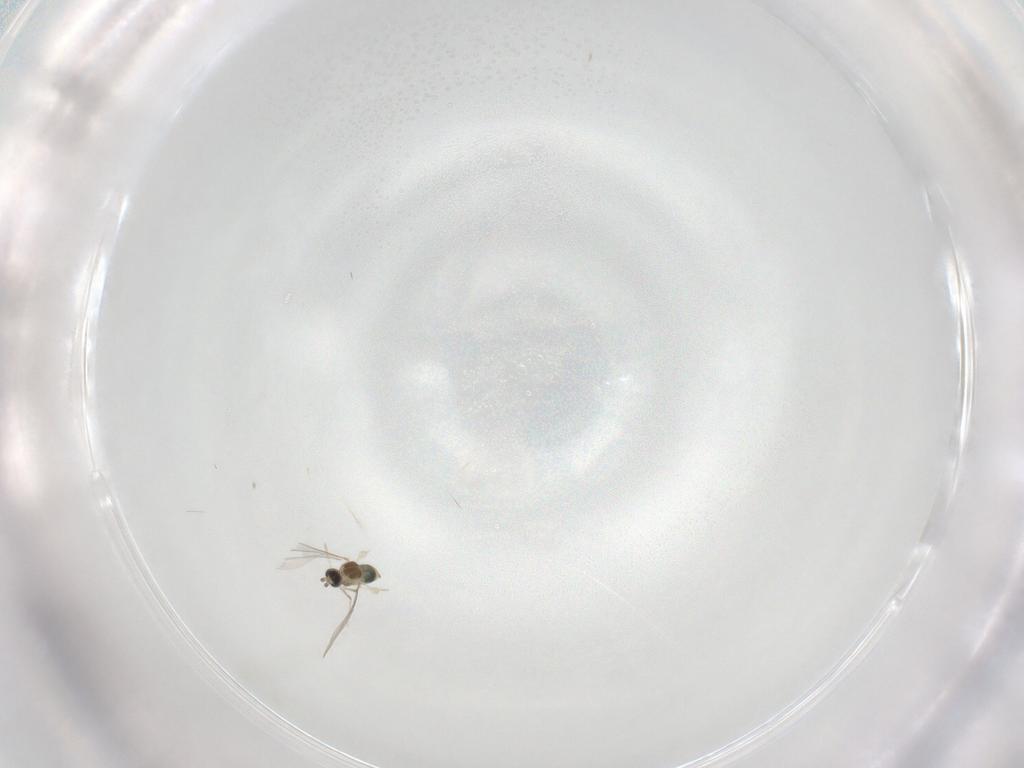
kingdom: Animalia
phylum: Arthropoda
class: Insecta
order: Diptera
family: Cecidomyiidae
